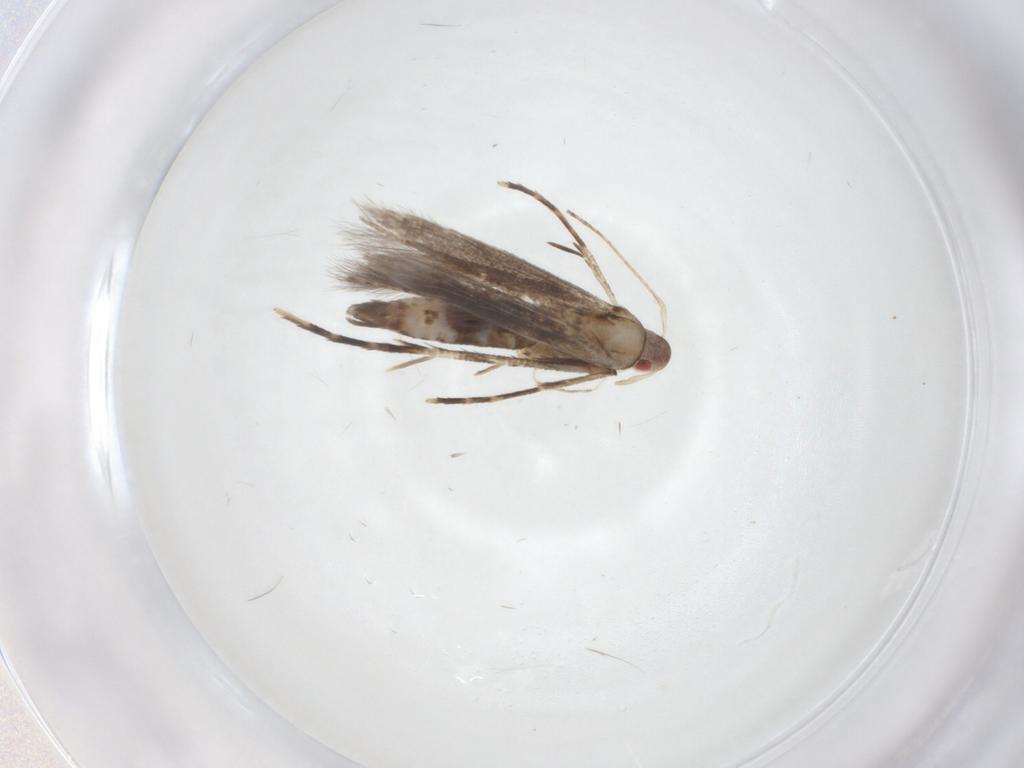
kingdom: Animalia
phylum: Arthropoda
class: Insecta
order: Lepidoptera
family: Cosmopterigidae
